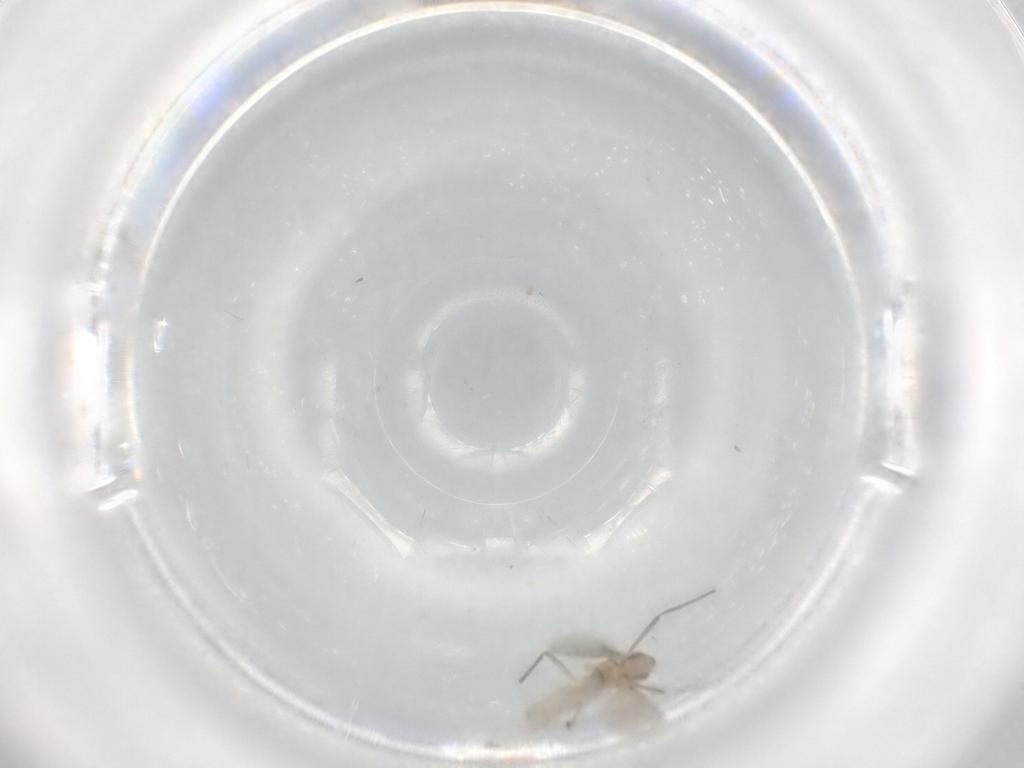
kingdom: Animalia
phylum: Arthropoda
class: Insecta
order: Diptera
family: Chironomidae
